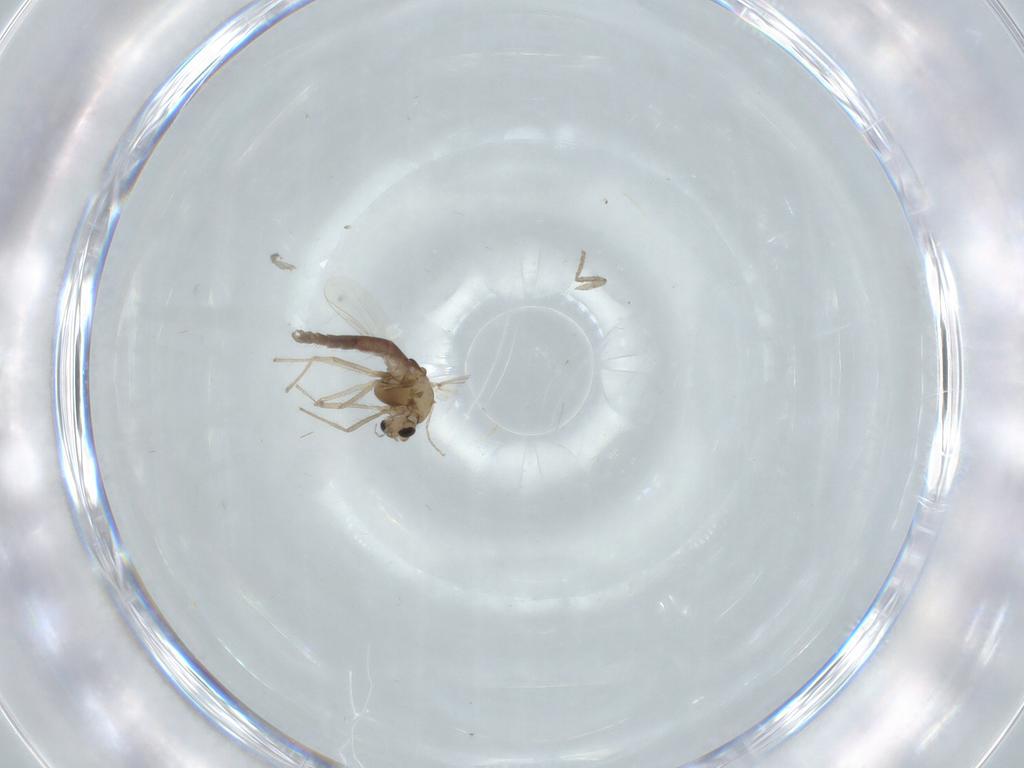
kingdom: Animalia
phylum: Arthropoda
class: Insecta
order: Diptera
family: Chironomidae
